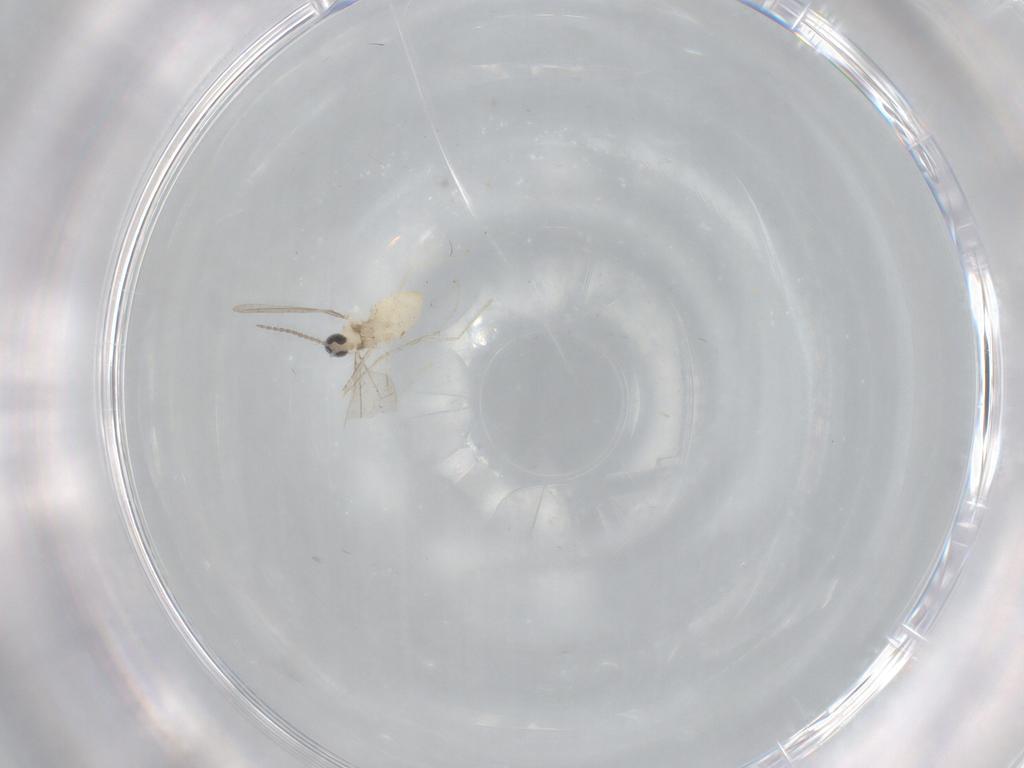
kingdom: Animalia
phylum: Arthropoda
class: Insecta
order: Diptera
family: Cecidomyiidae
